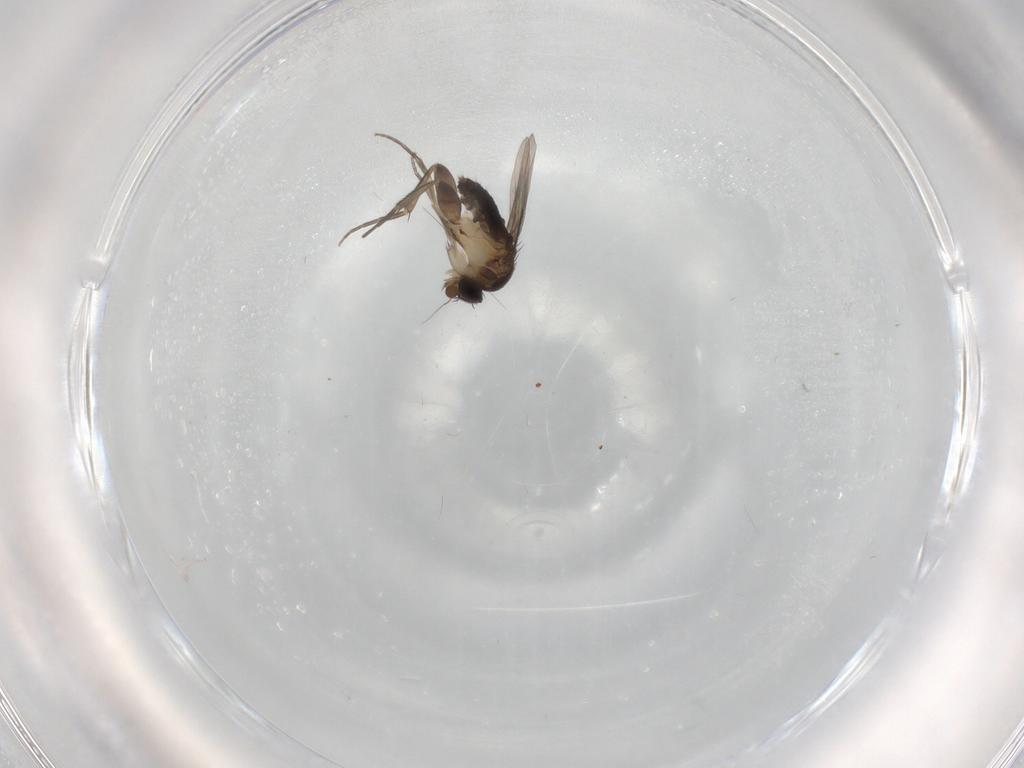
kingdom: Animalia
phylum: Arthropoda
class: Insecta
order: Diptera
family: Phoridae
